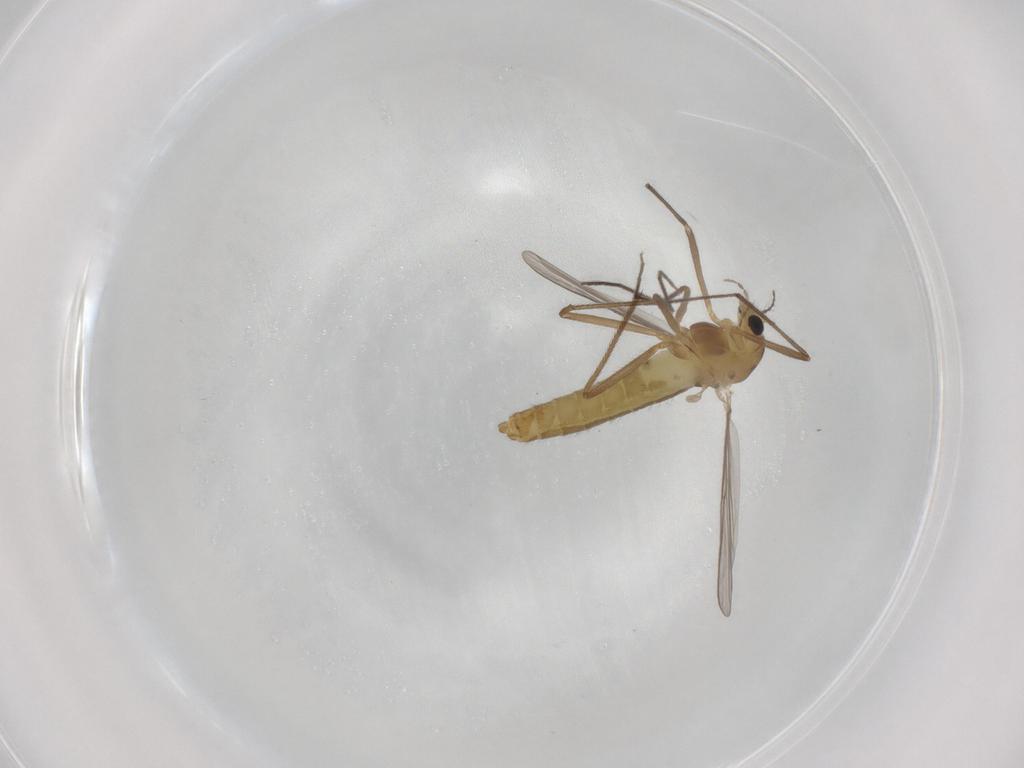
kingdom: Animalia
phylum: Arthropoda
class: Insecta
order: Diptera
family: Chironomidae
